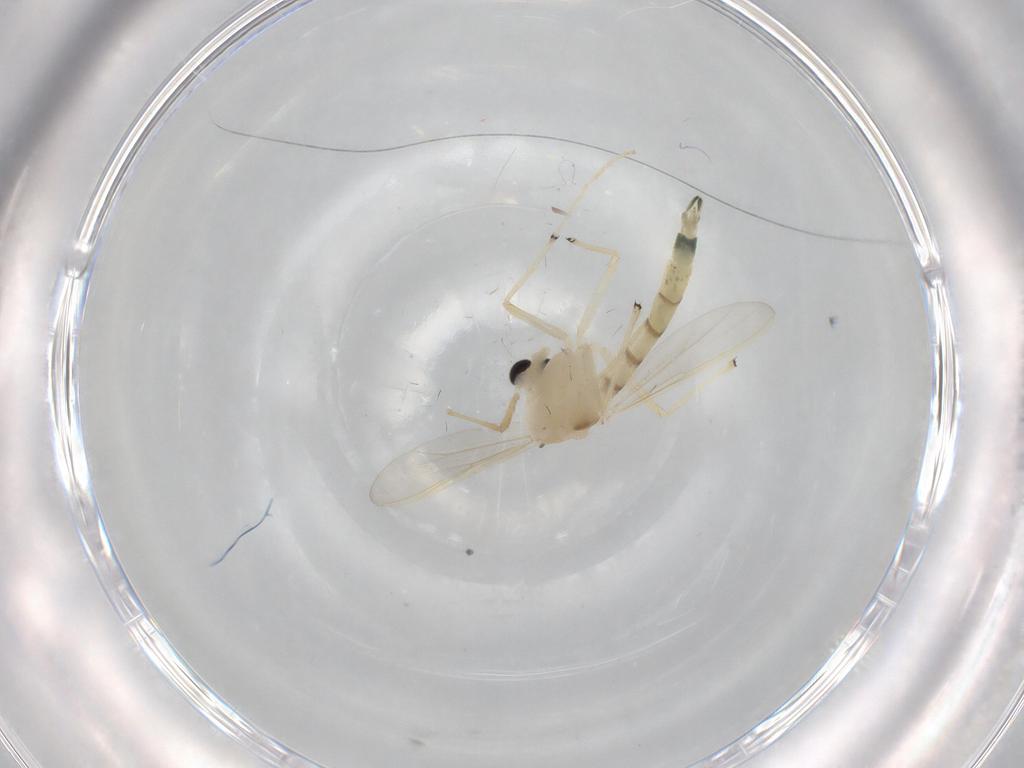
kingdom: Animalia
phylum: Arthropoda
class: Insecta
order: Diptera
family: Chironomidae
